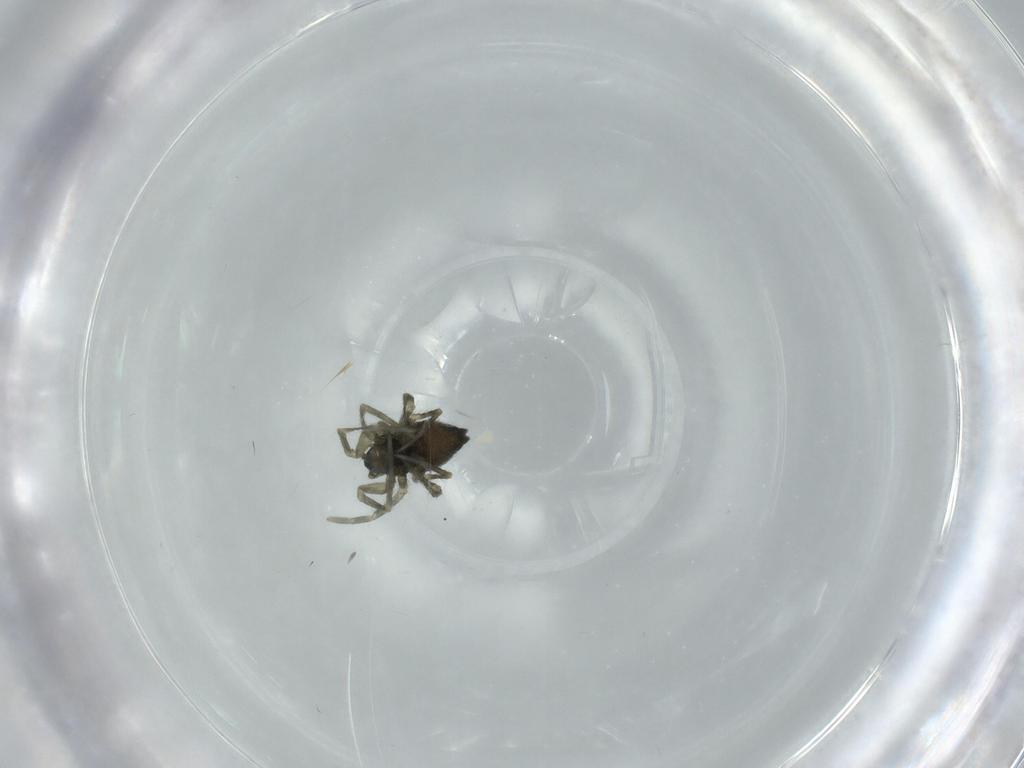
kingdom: Animalia
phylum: Arthropoda
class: Arachnida
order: Araneae
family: Linyphiidae
